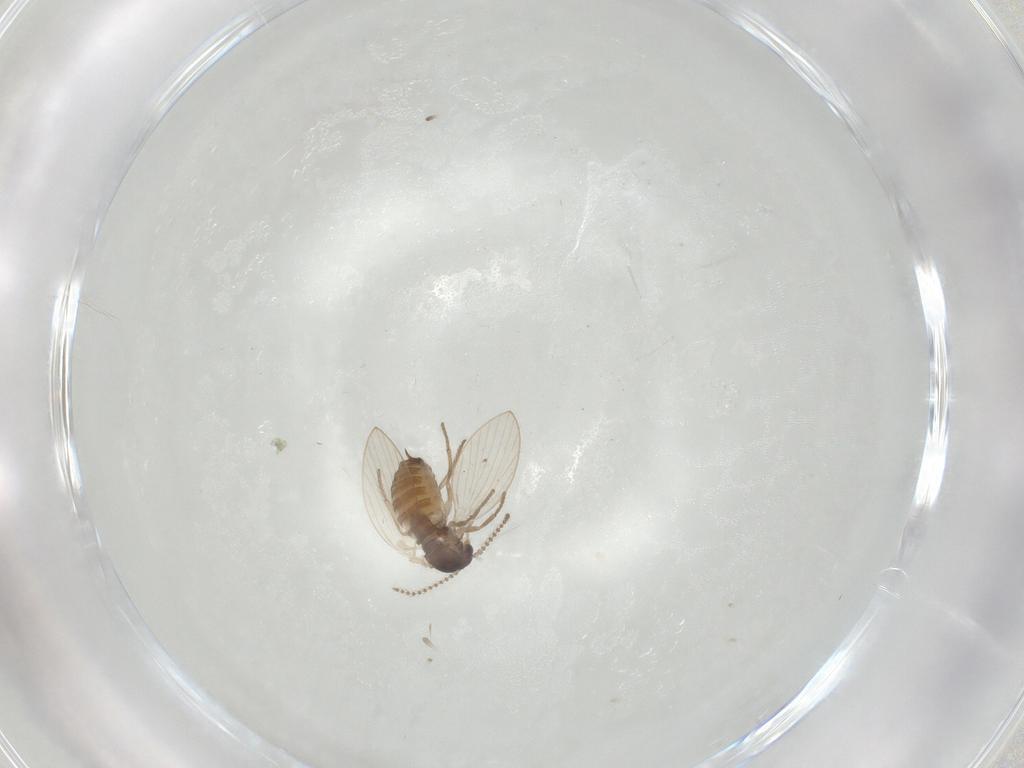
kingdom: Animalia
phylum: Arthropoda
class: Insecta
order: Diptera
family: Psychodidae
